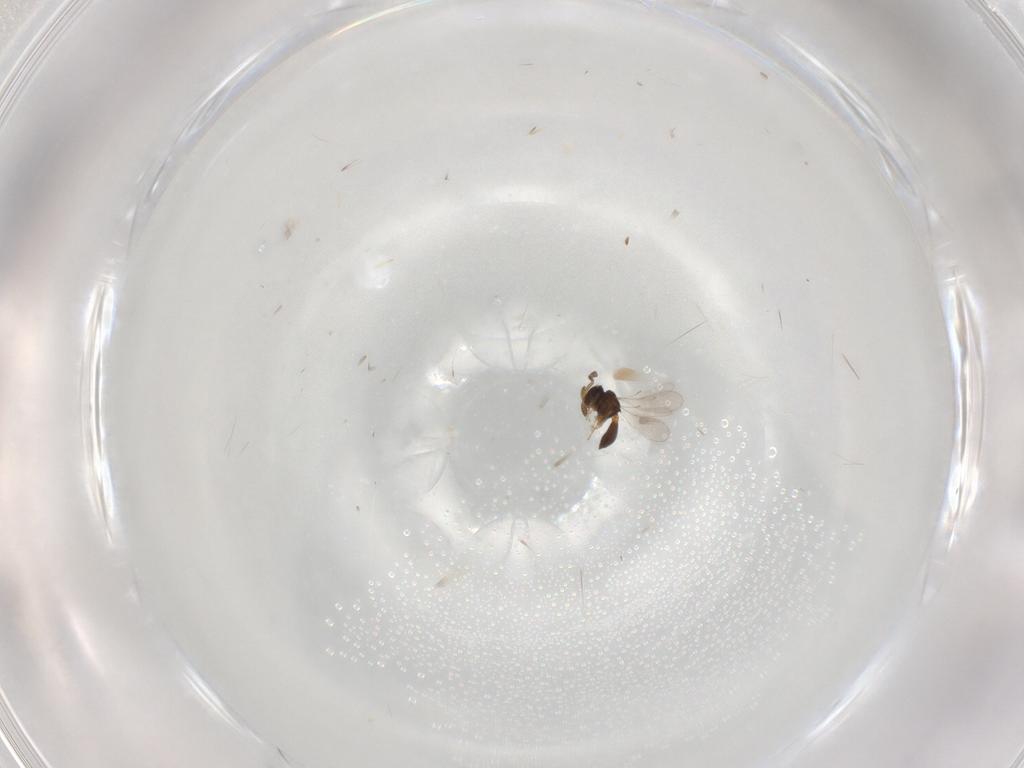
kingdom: Animalia
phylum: Arthropoda
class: Insecta
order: Hymenoptera
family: Scelionidae
